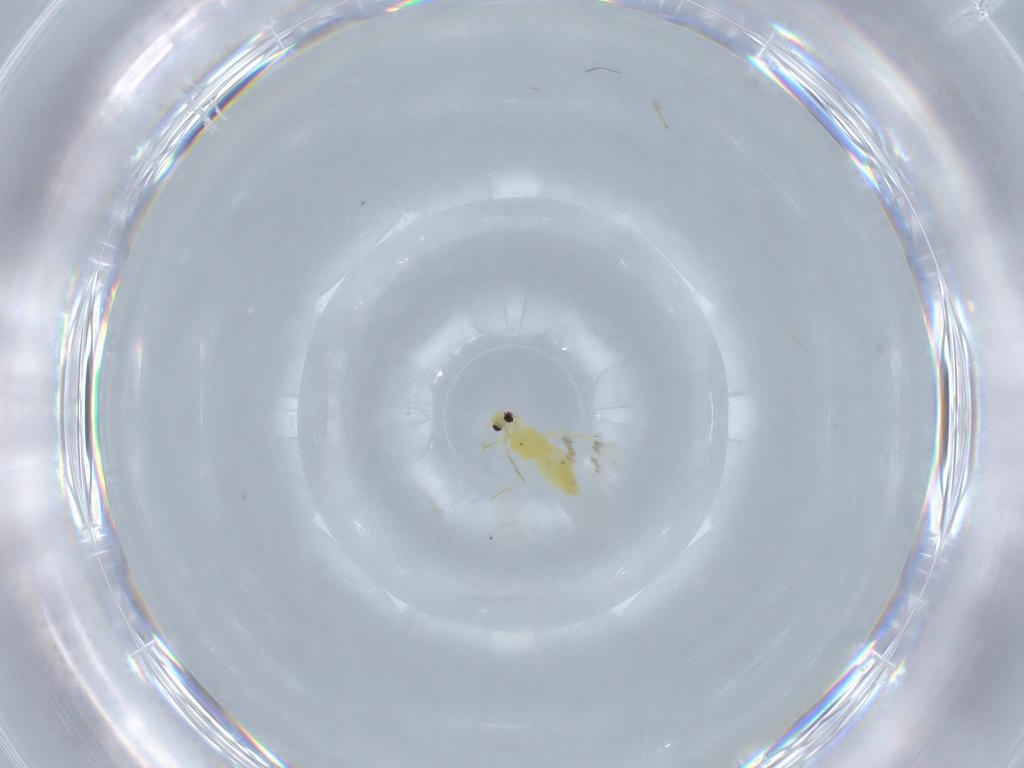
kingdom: Animalia
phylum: Arthropoda
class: Insecta
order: Hemiptera
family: Aleyrodidae
